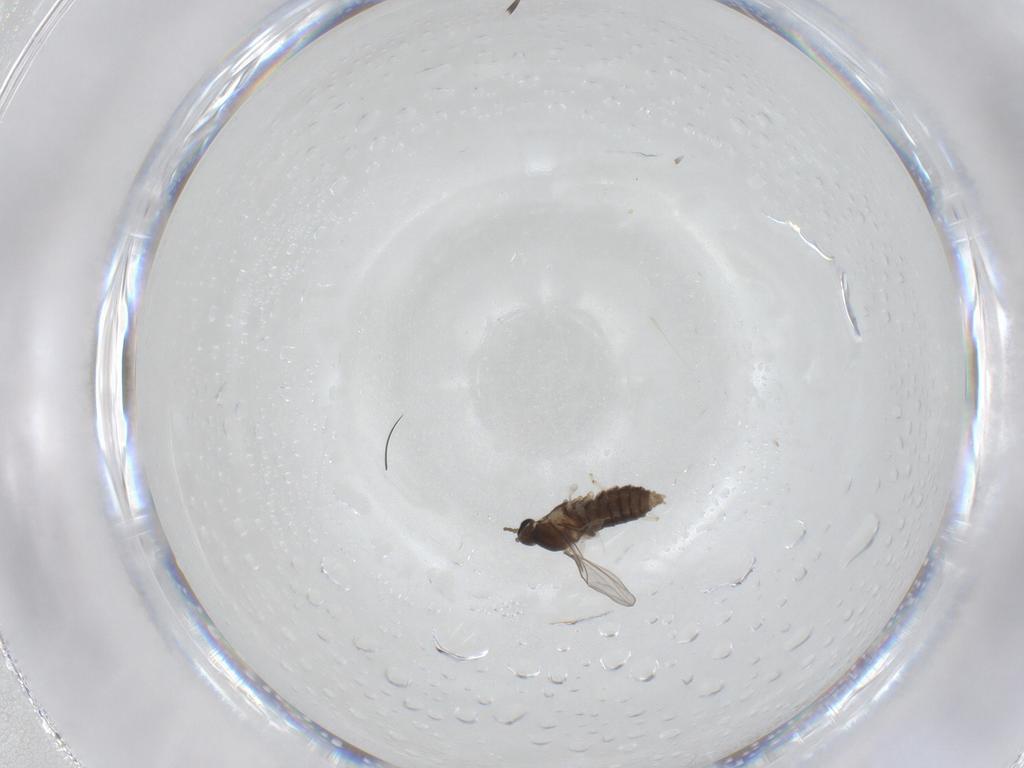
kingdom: Animalia
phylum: Arthropoda
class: Insecta
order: Diptera
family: Cecidomyiidae
